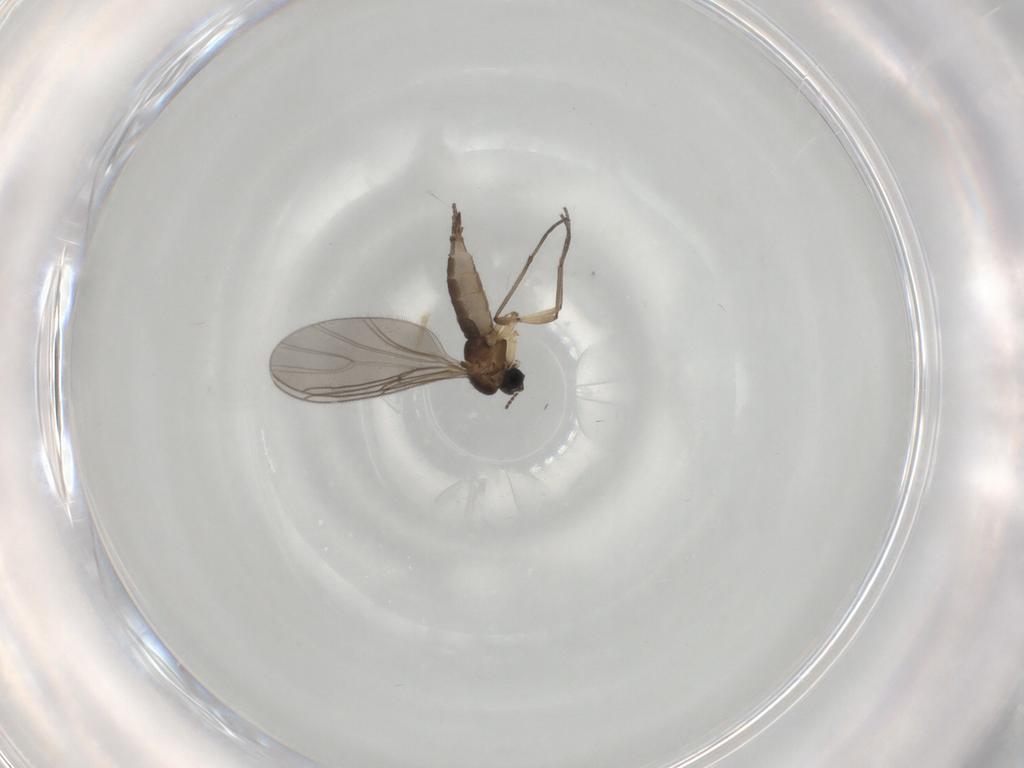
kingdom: Animalia
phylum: Arthropoda
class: Insecta
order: Diptera
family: Sciaridae
